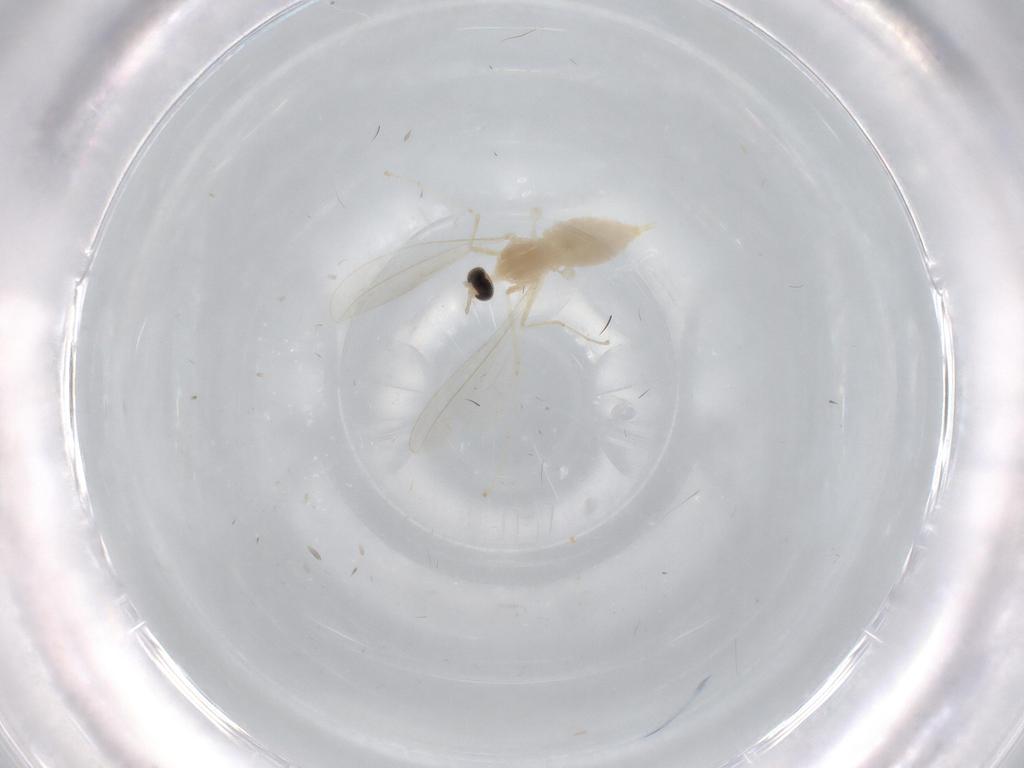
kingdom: Animalia
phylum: Arthropoda
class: Insecta
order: Diptera
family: Cecidomyiidae
